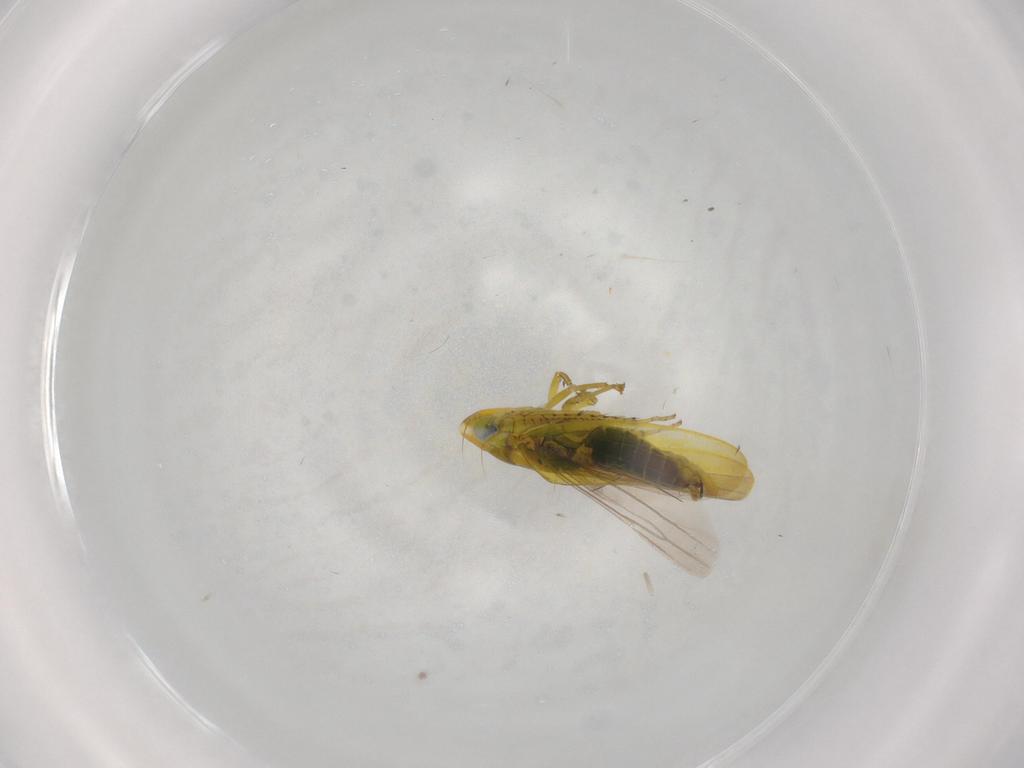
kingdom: Animalia
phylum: Arthropoda
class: Insecta
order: Hemiptera
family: Cicadellidae
